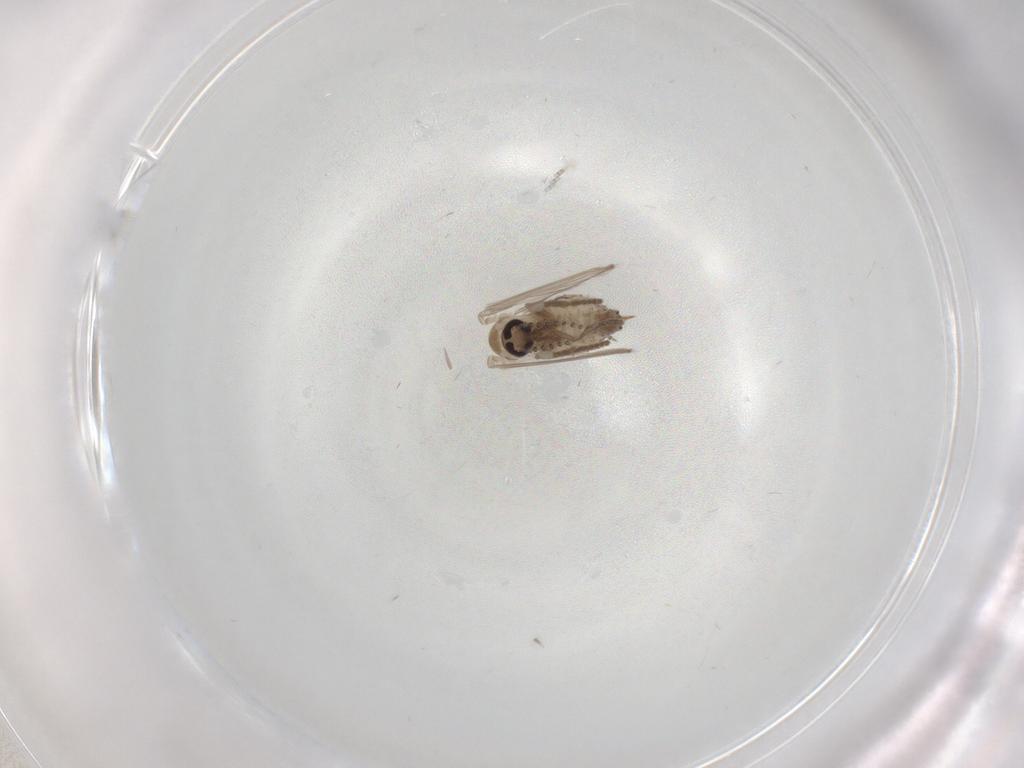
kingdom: Animalia
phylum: Arthropoda
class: Insecta
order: Diptera
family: Psychodidae
